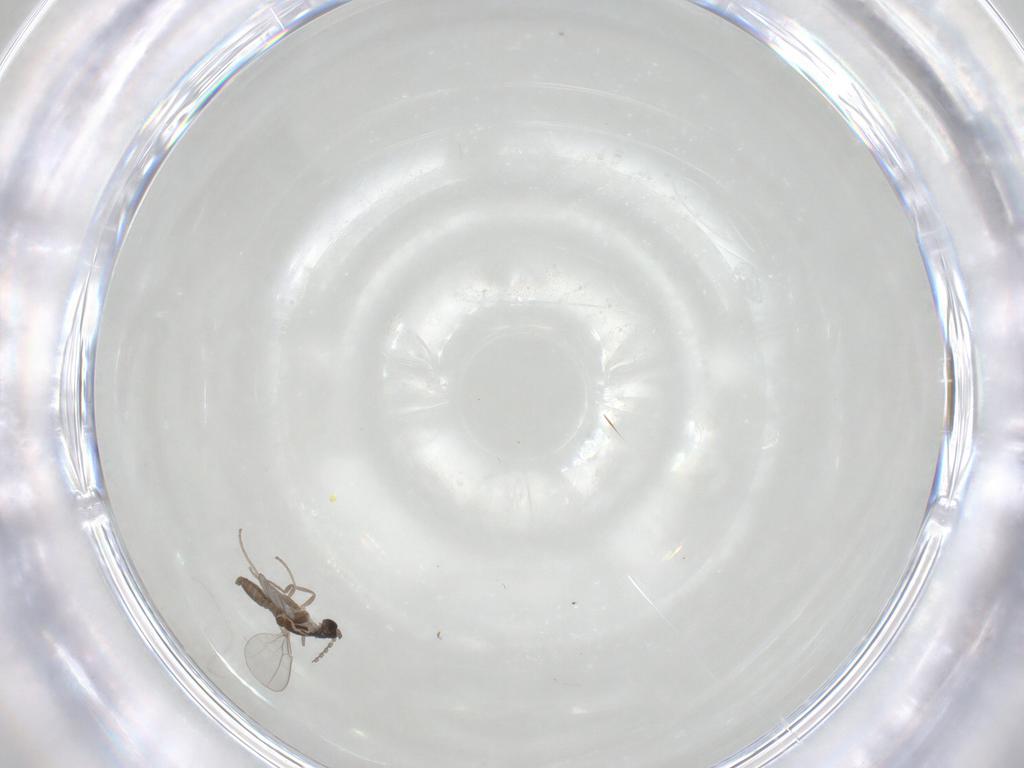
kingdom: Animalia
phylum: Arthropoda
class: Insecta
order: Diptera
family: Cecidomyiidae
